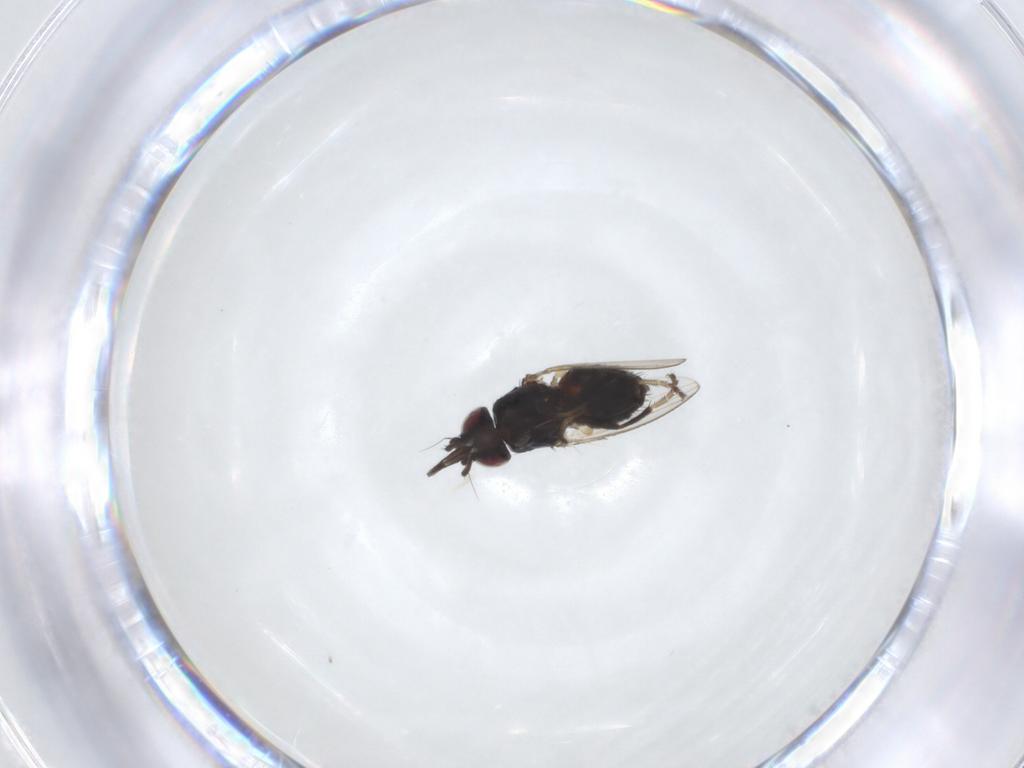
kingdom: Animalia
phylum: Arthropoda
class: Insecta
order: Diptera
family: Milichiidae
